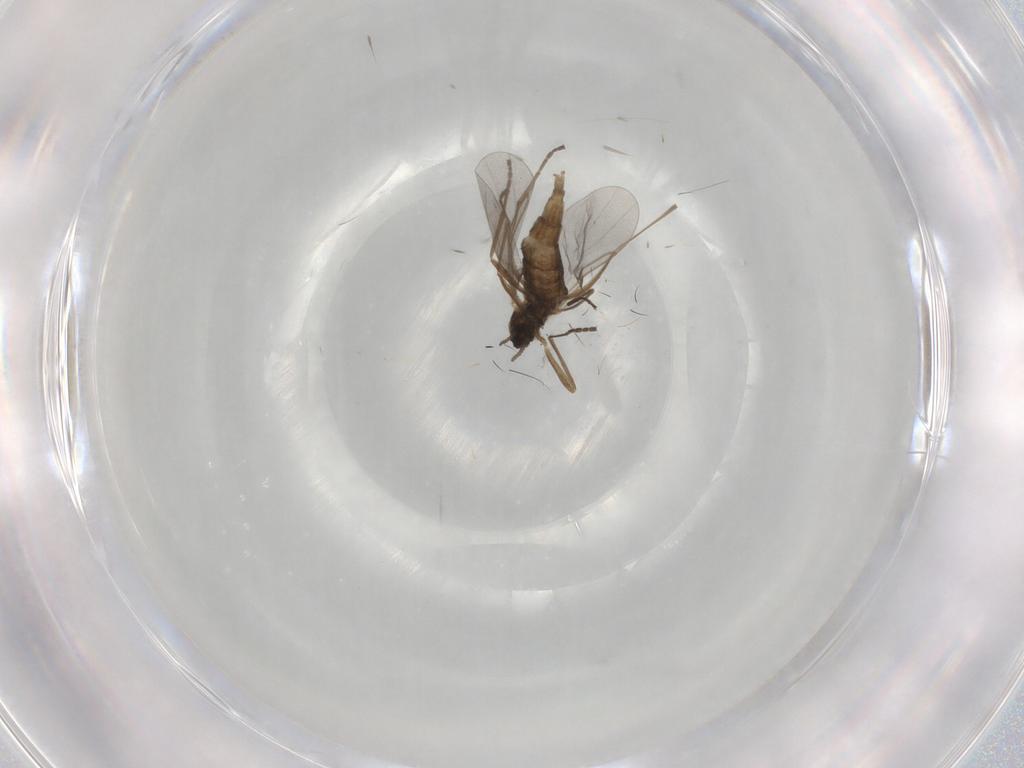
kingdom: Animalia
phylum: Arthropoda
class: Insecta
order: Diptera
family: Cecidomyiidae
